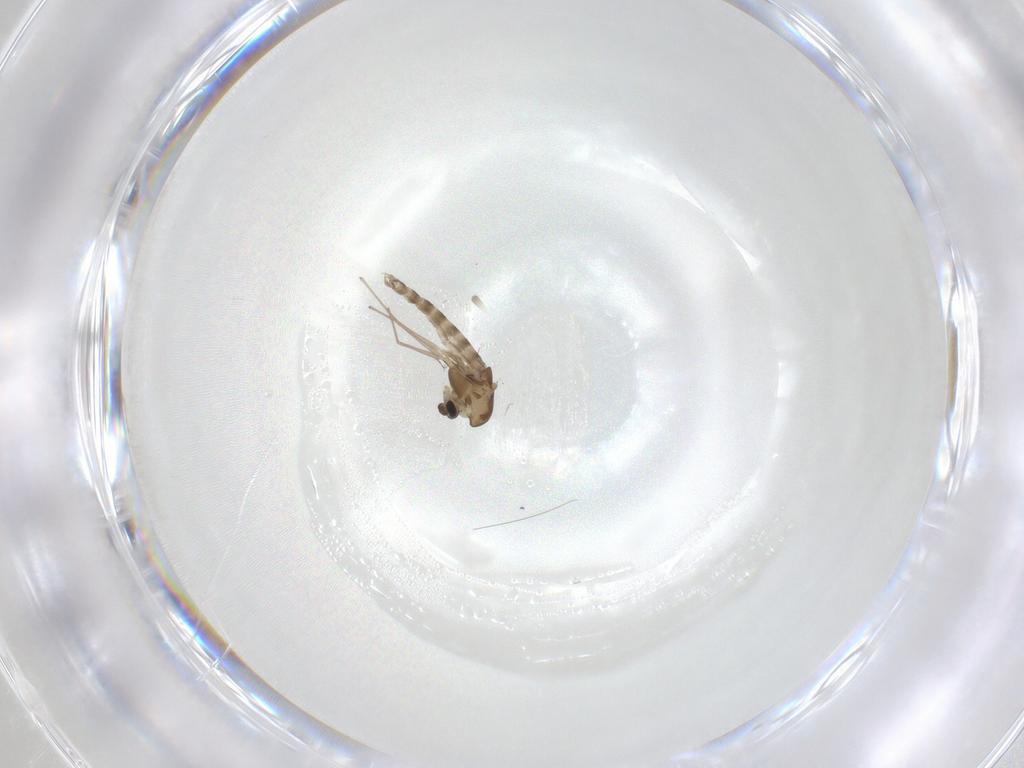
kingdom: Animalia
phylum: Arthropoda
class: Insecta
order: Diptera
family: Chironomidae
